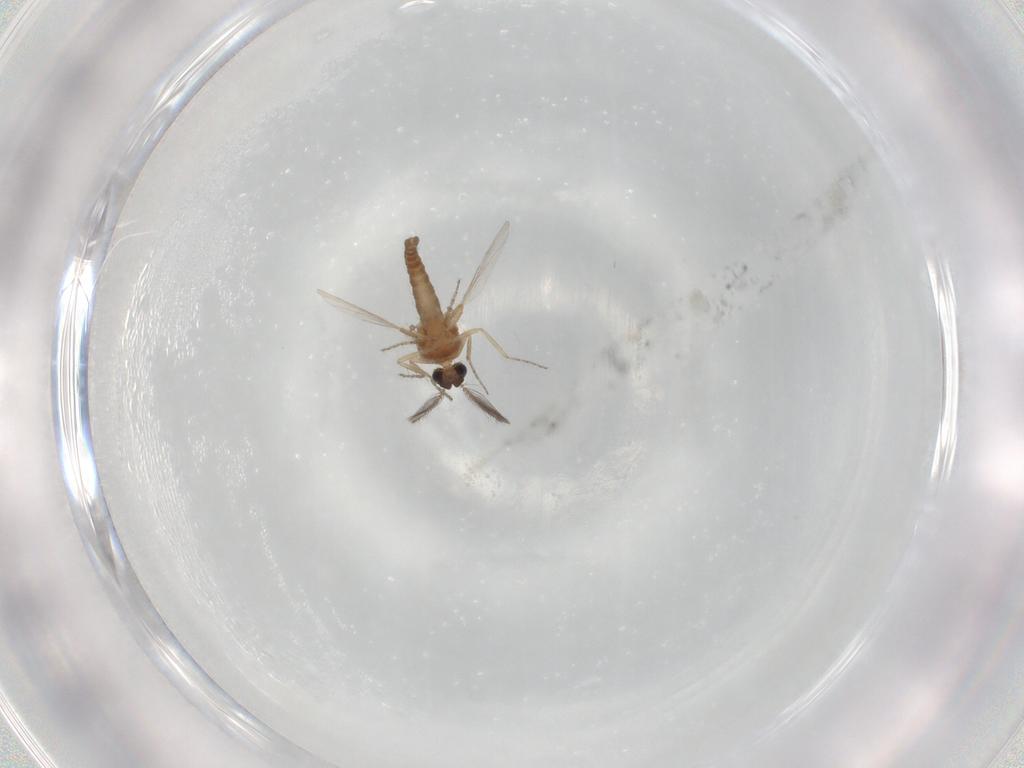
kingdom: Animalia
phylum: Arthropoda
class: Insecta
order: Diptera
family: Ceratopogonidae
